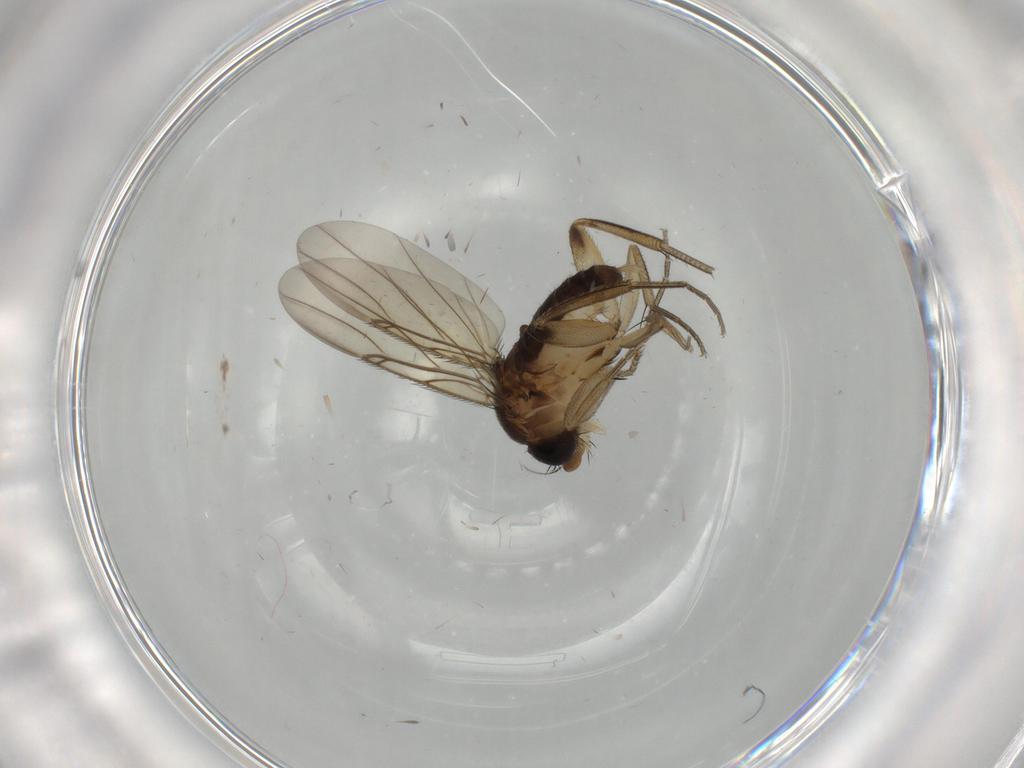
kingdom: Animalia
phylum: Arthropoda
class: Insecta
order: Diptera
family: Phoridae
